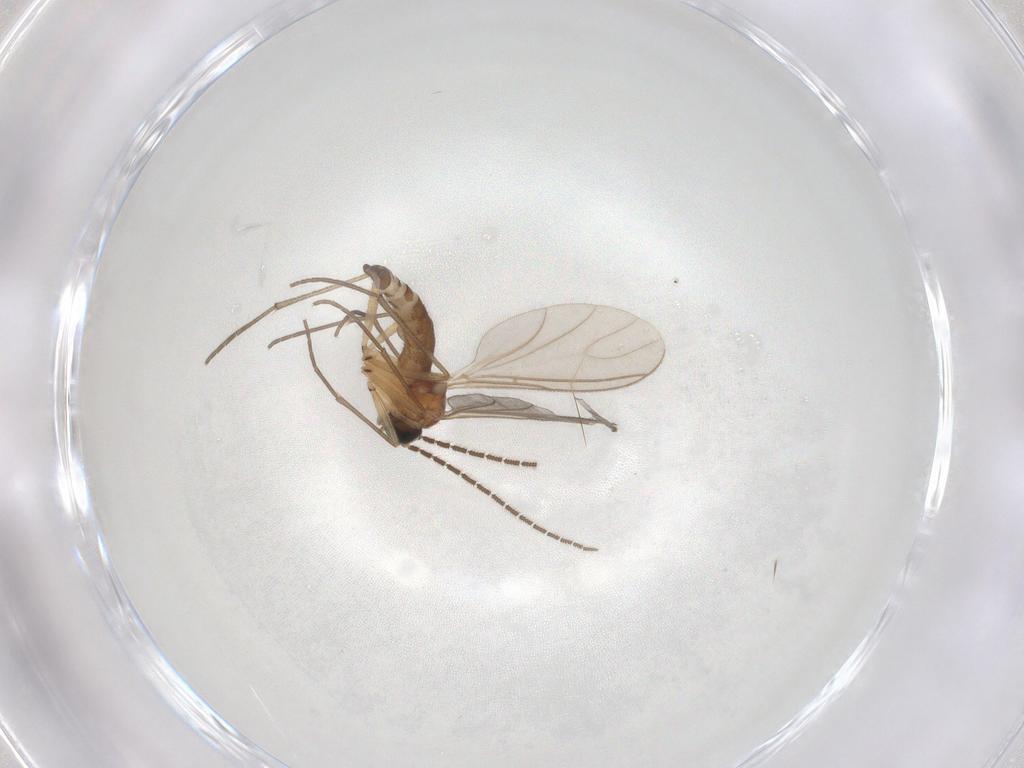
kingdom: Animalia
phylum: Arthropoda
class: Insecta
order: Diptera
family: Sciaridae
